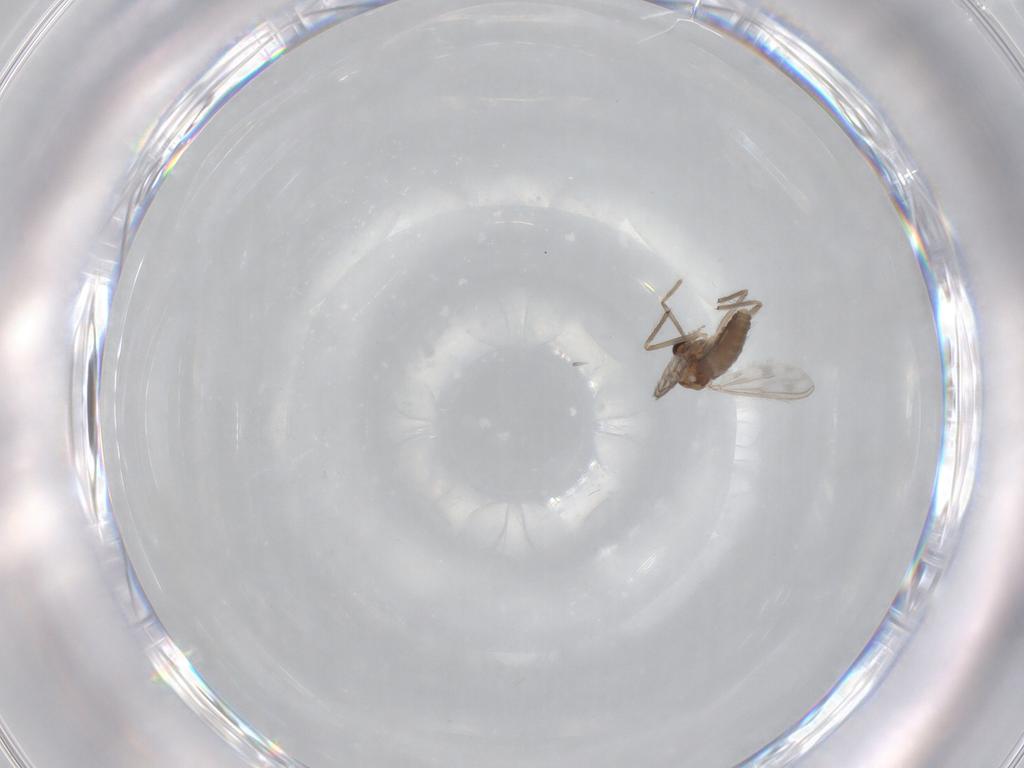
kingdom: Animalia
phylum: Arthropoda
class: Insecta
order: Diptera
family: Chironomidae
